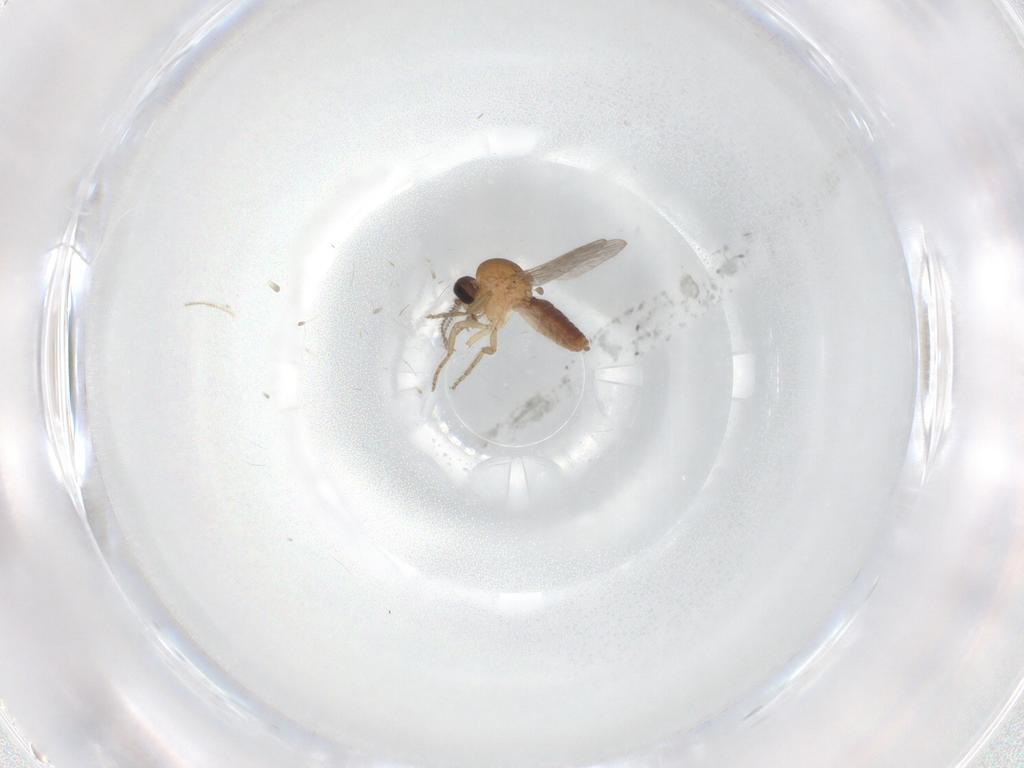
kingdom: Animalia
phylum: Arthropoda
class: Insecta
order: Diptera
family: Ceratopogonidae
